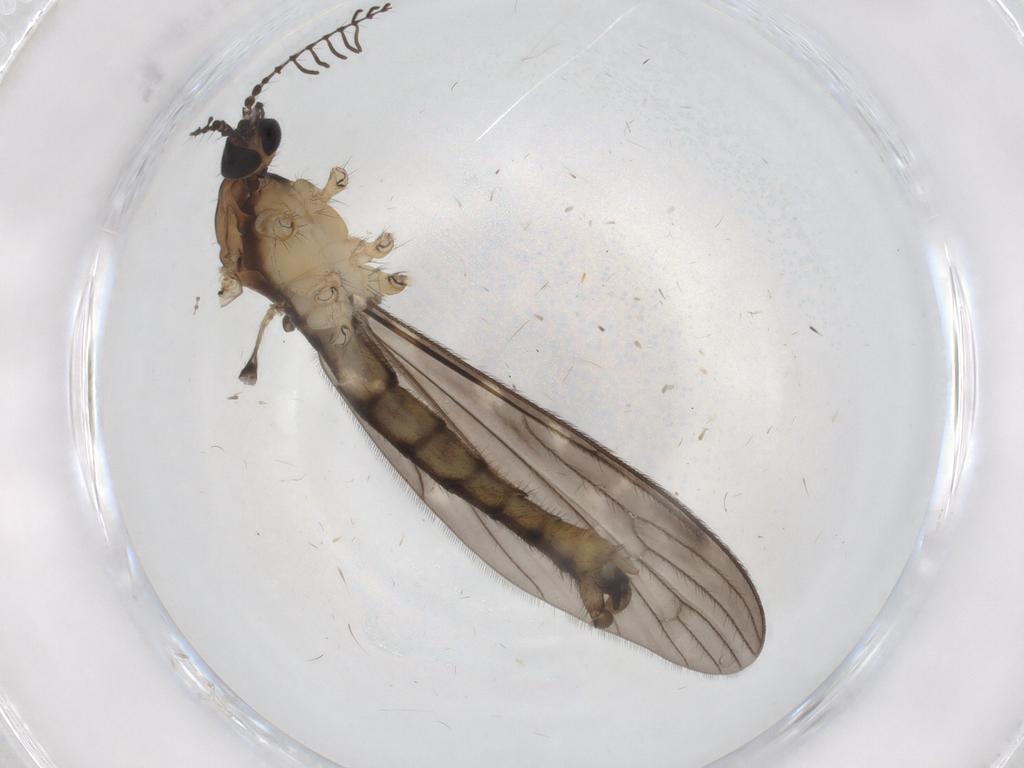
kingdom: Animalia
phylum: Arthropoda
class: Insecta
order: Diptera
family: Limoniidae
